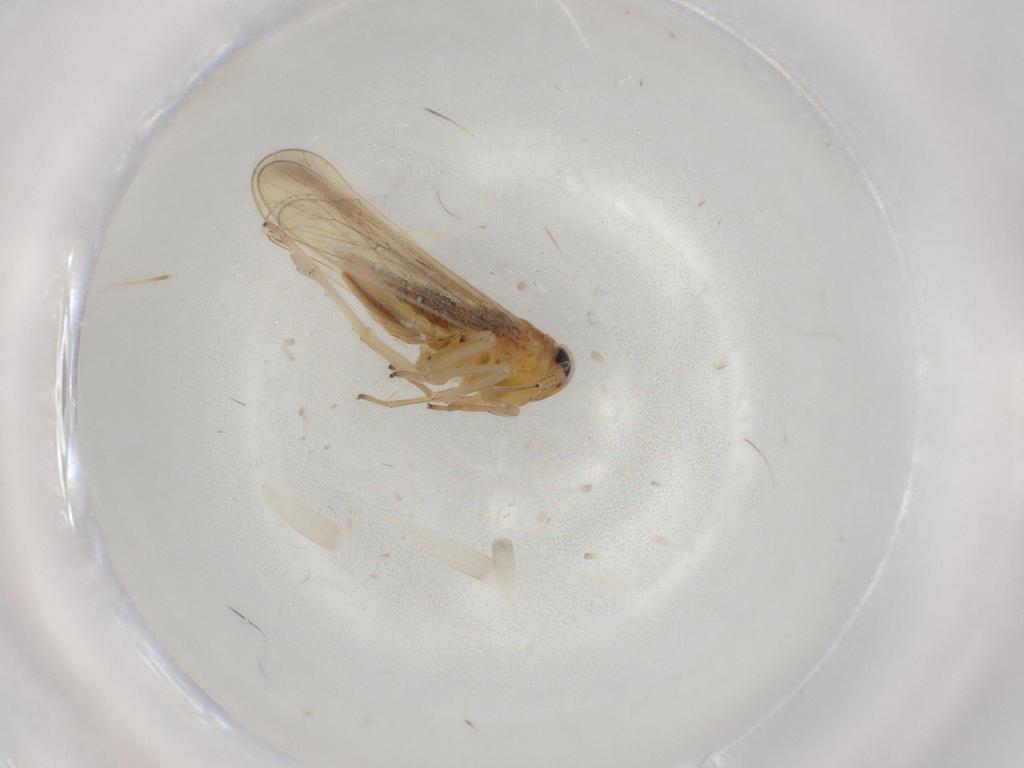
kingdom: Animalia
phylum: Arthropoda
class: Insecta
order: Hemiptera
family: Delphacidae
